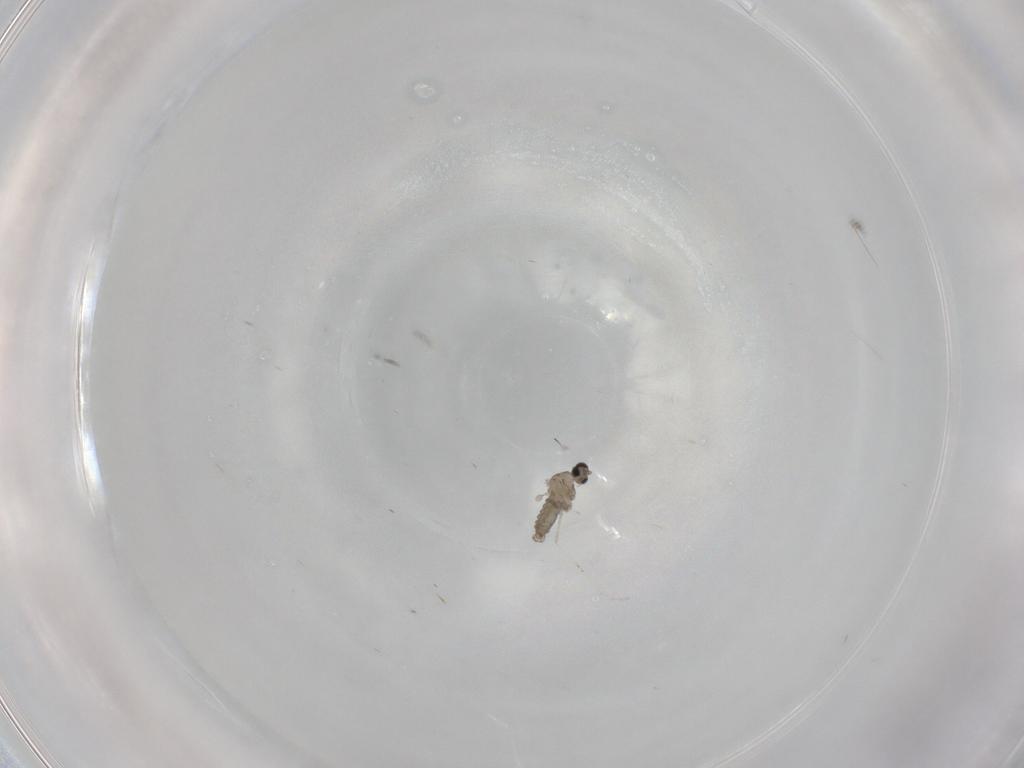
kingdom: Animalia
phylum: Arthropoda
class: Insecta
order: Diptera
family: Cecidomyiidae
